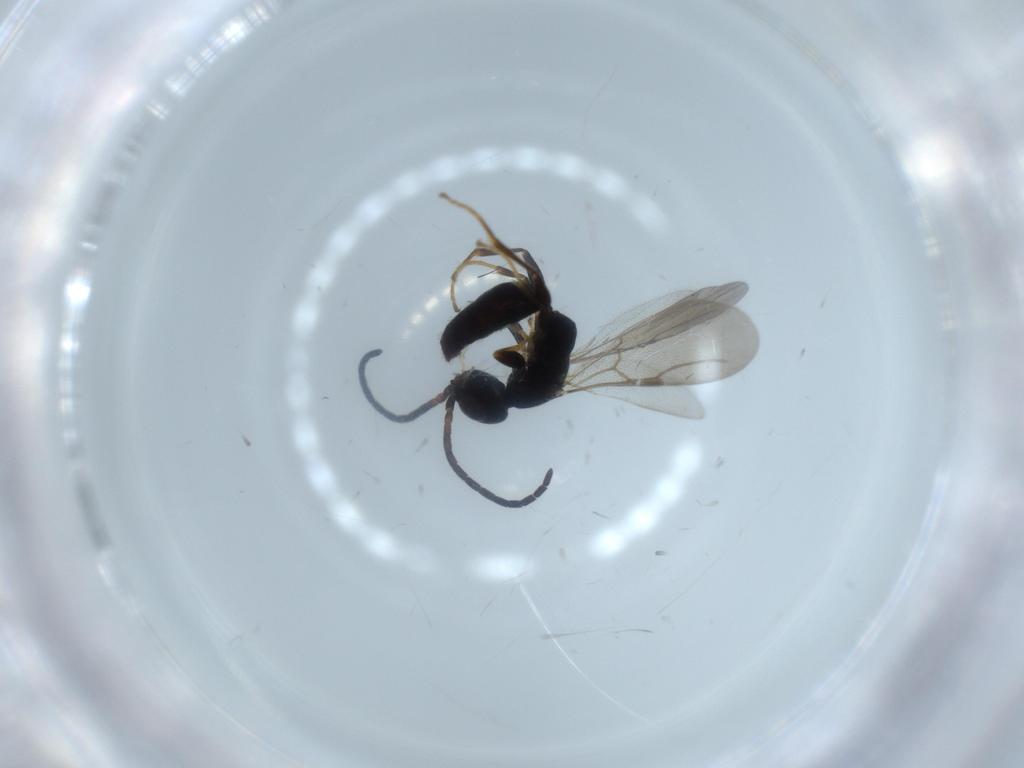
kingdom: Animalia
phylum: Arthropoda
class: Insecta
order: Hymenoptera
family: Bethylidae
